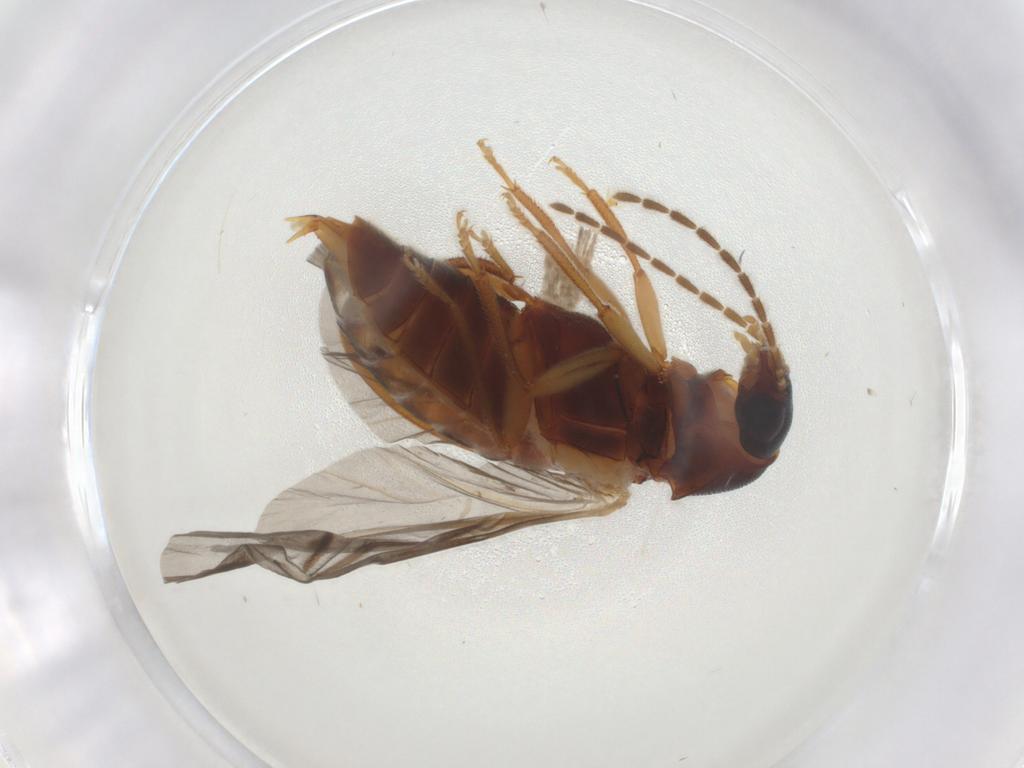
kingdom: Animalia
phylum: Arthropoda
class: Insecta
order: Coleoptera
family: Ptilodactylidae
